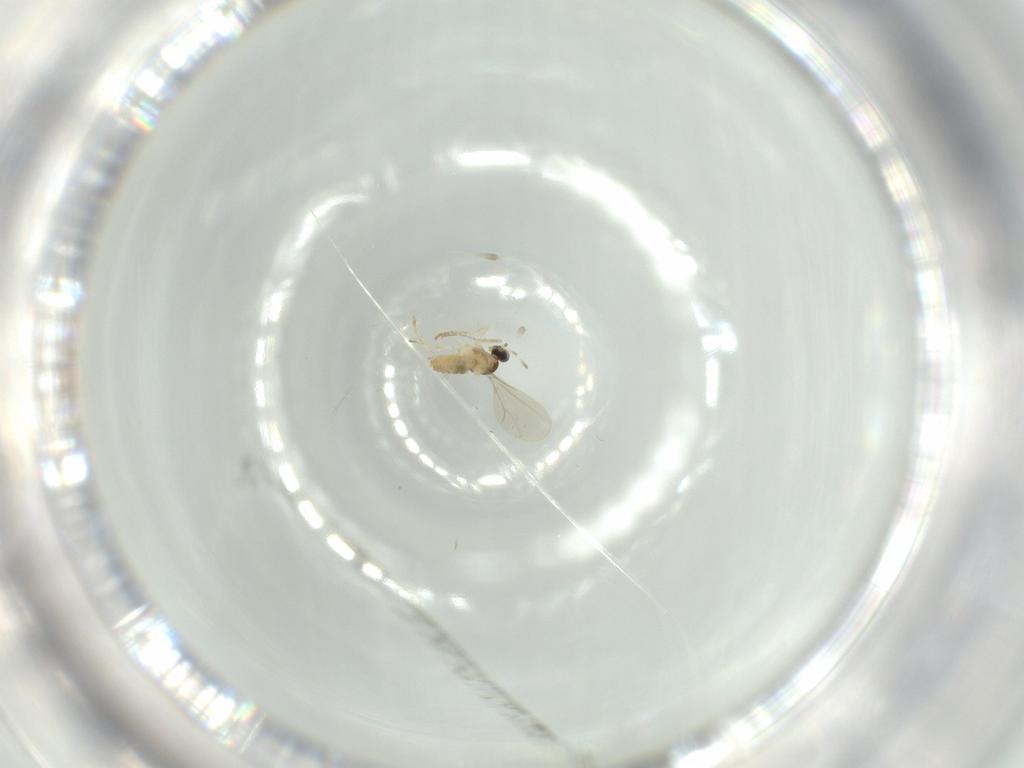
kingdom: Animalia
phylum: Arthropoda
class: Insecta
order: Diptera
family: Cecidomyiidae
